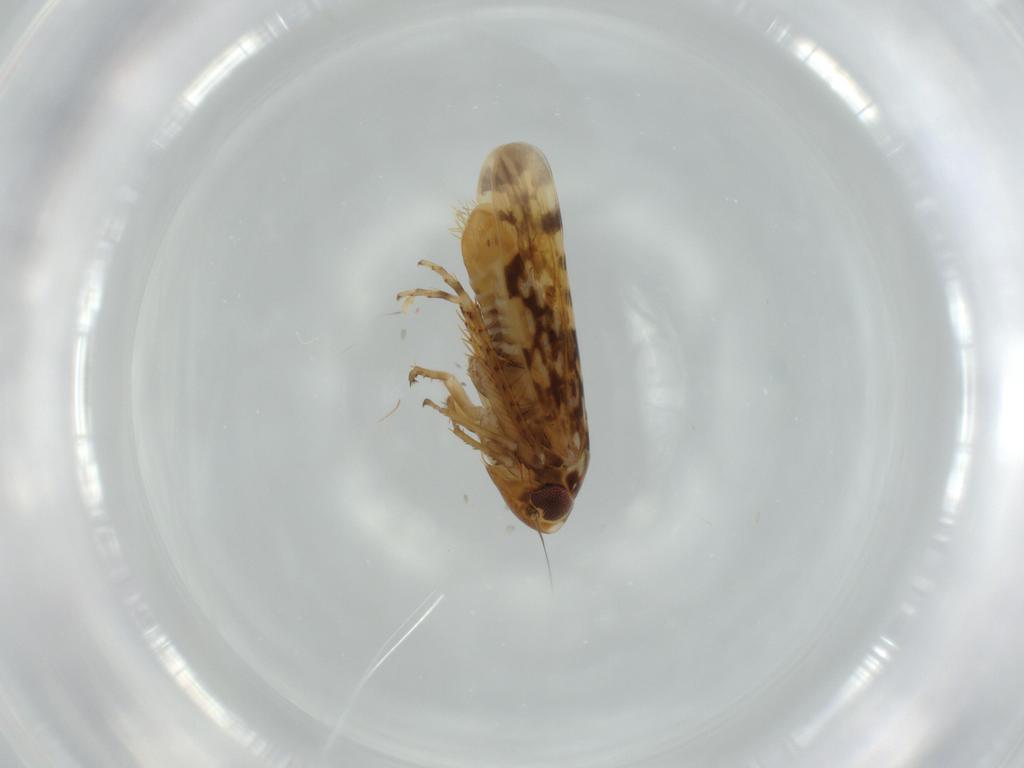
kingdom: Animalia
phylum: Arthropoda
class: Insecta
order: Hemiptera
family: Cicadellidae
